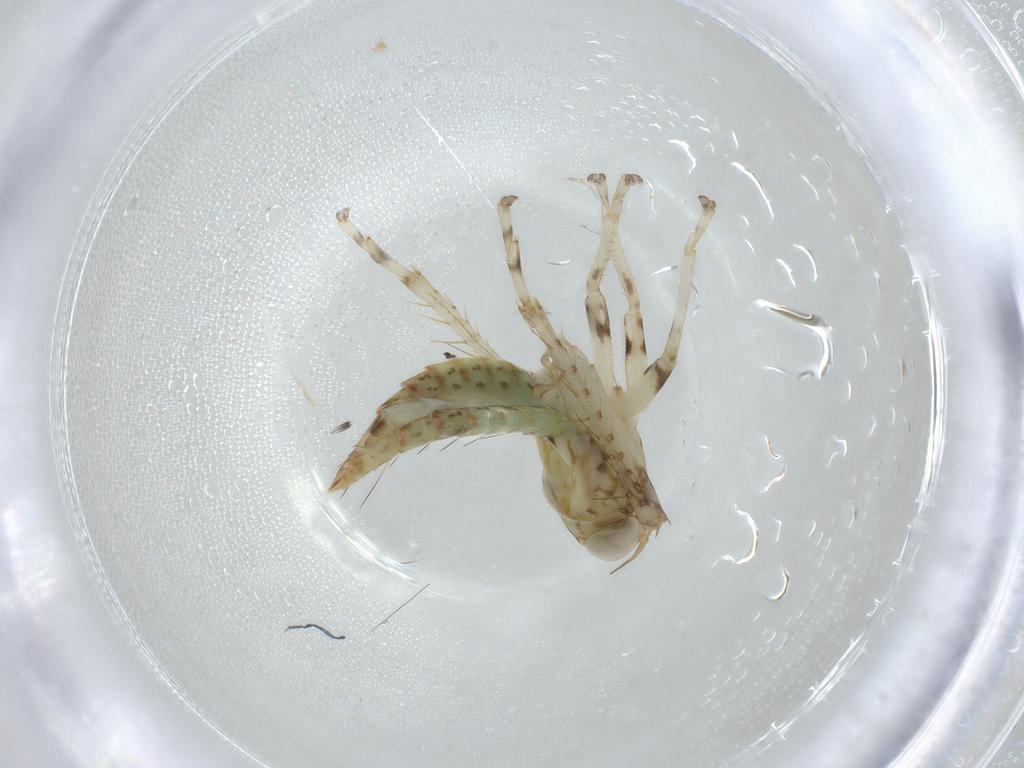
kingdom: Animalia
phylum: Arthropoda
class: Insecta
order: Hemiptera
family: Cicadellidae
